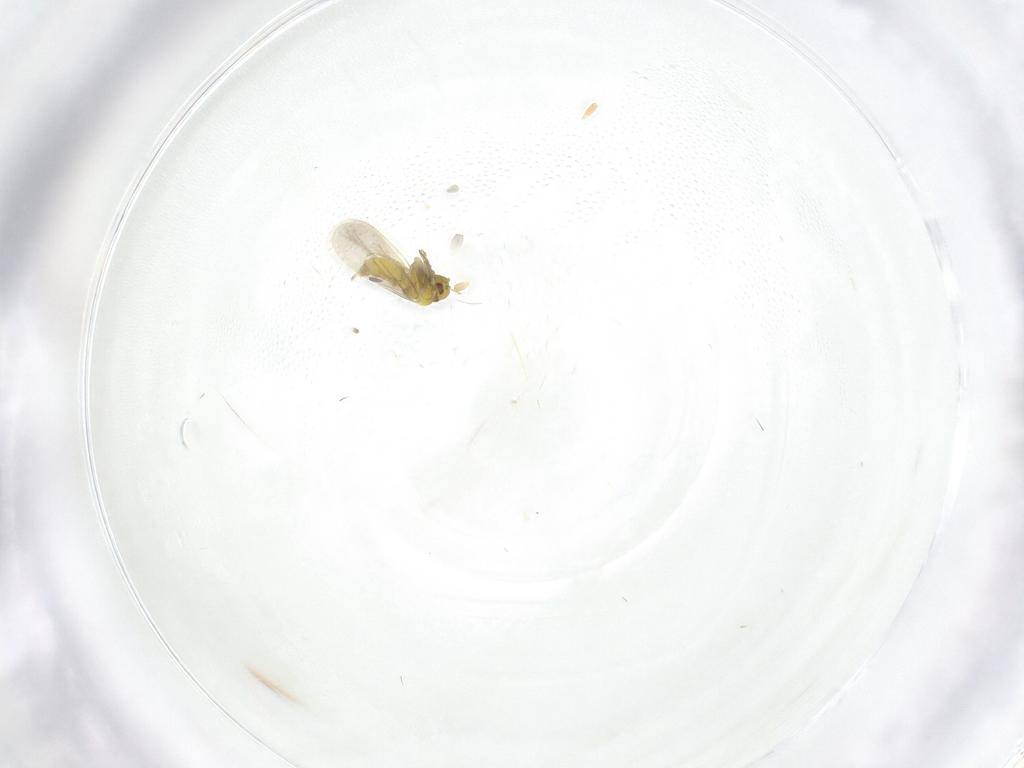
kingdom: Animalia
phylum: Arthropoda
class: Insecta
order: Hemiptera
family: Aleyrodidae
